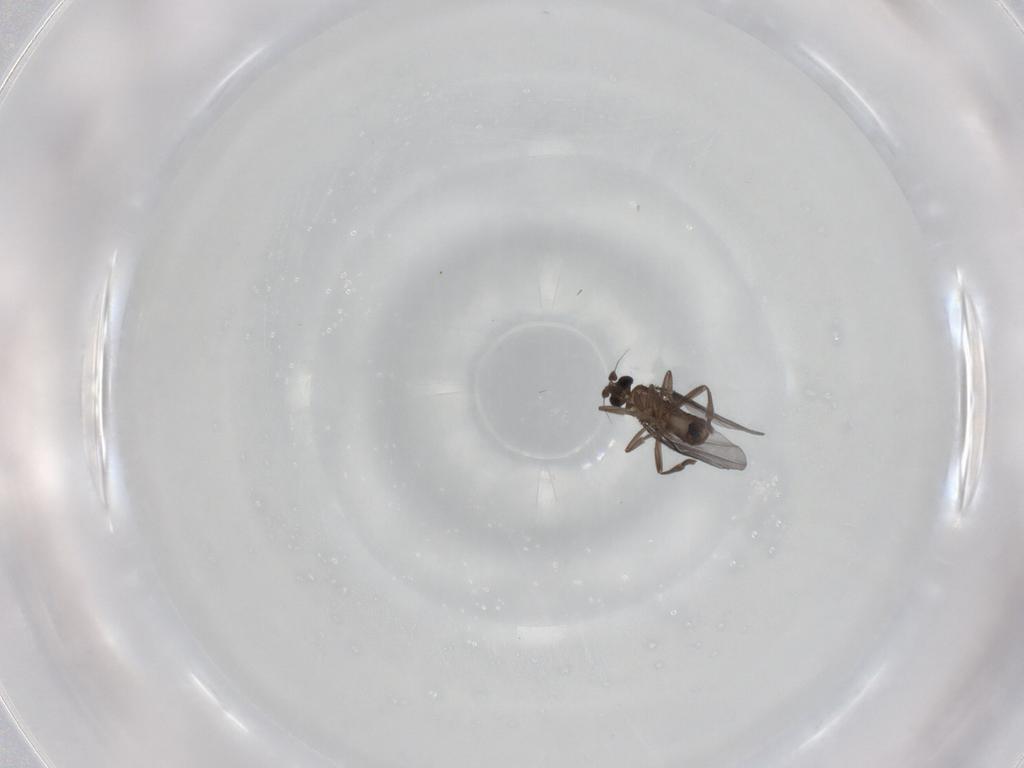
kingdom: Animalia
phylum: Arthropoda
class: Insecta
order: Diptera
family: Phoridae
